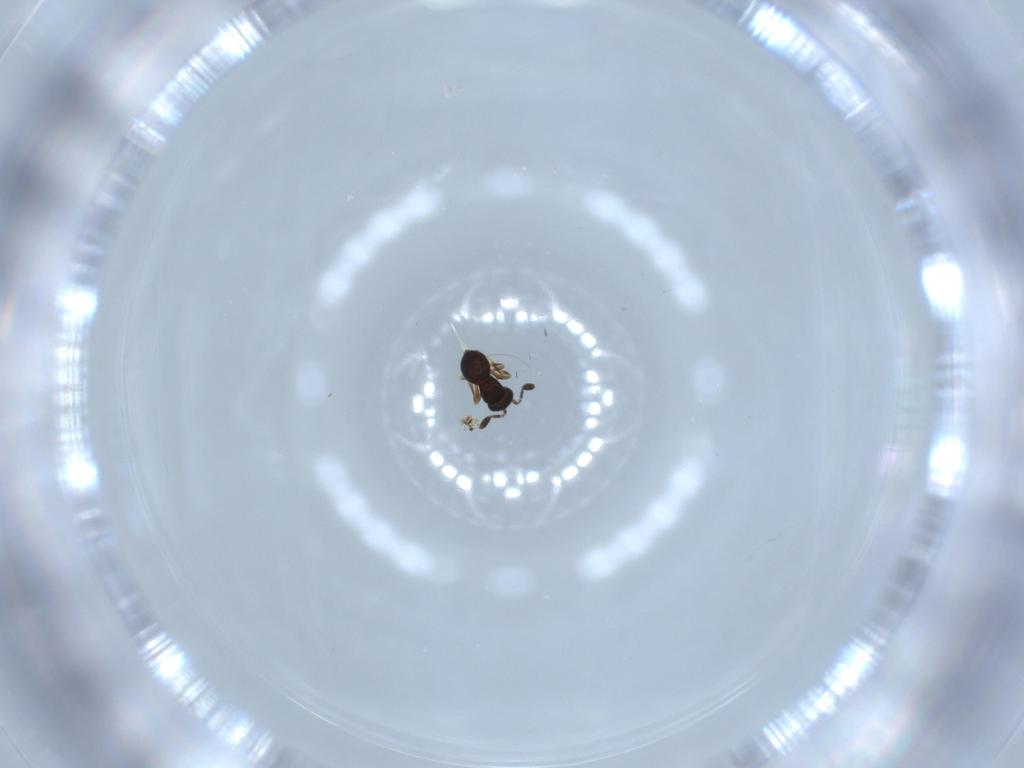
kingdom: Animalia
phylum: Arthropoda
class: Insecta
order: Hymenoptera
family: Scelionidae
